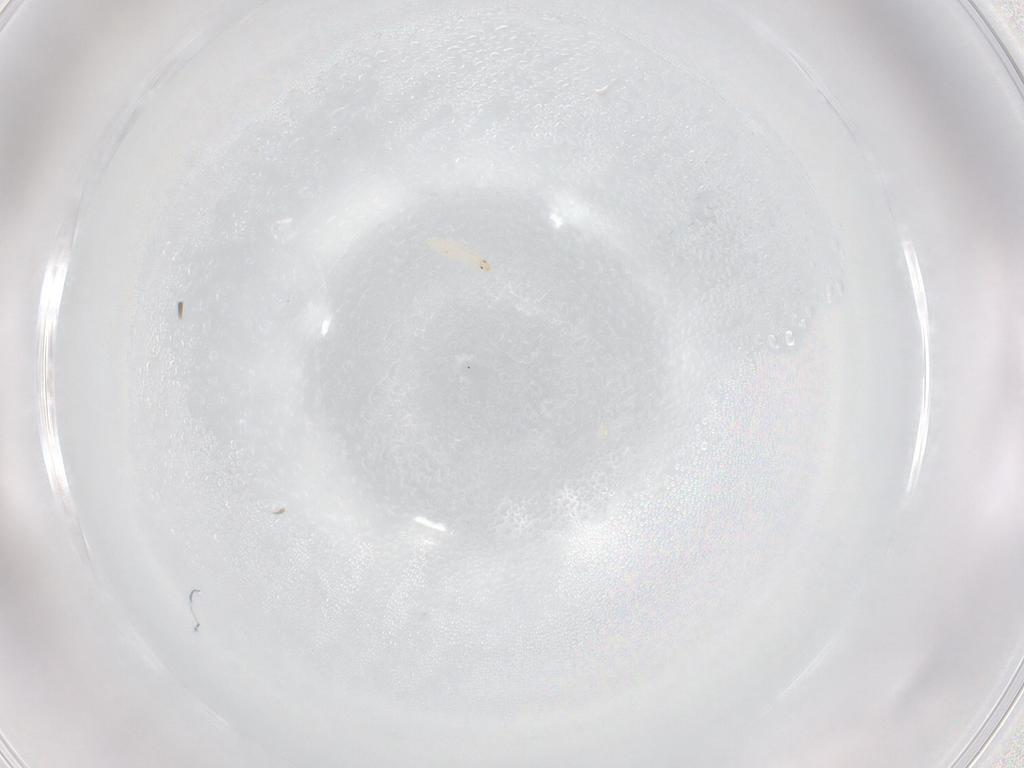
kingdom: Animalia
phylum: Arthropoda
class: Insecta
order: Diptera
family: Stratiomyidae
